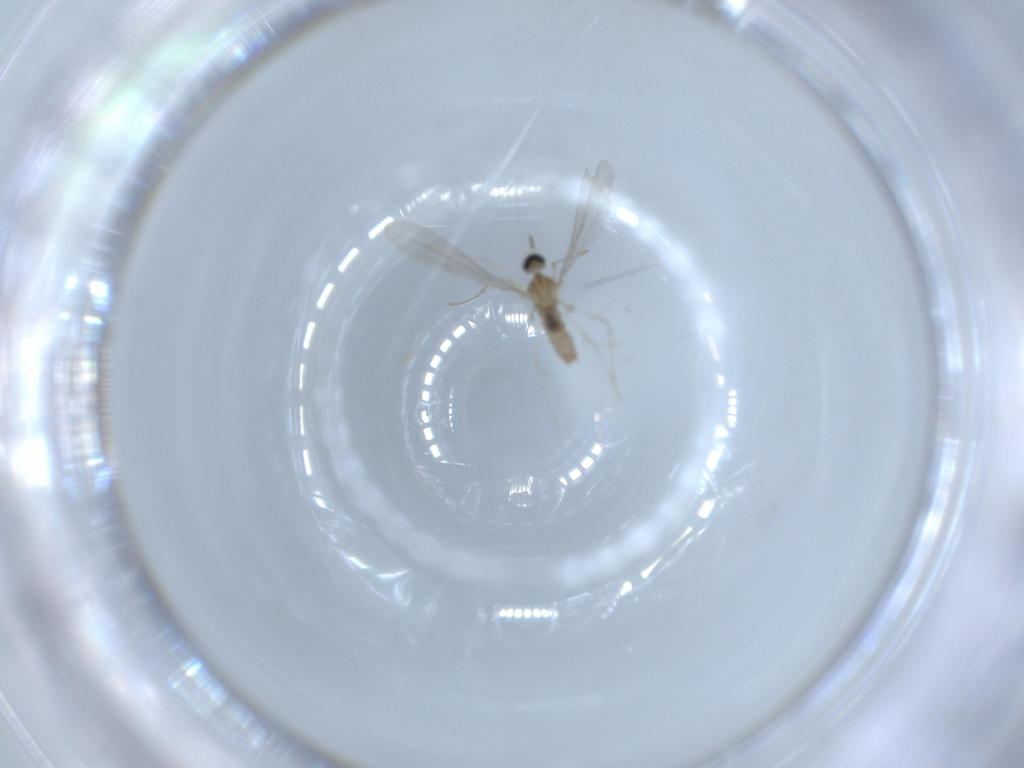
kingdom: Animalia
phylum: Arthropoda
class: Insecta
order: Diptera
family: Cecidomyiidae
